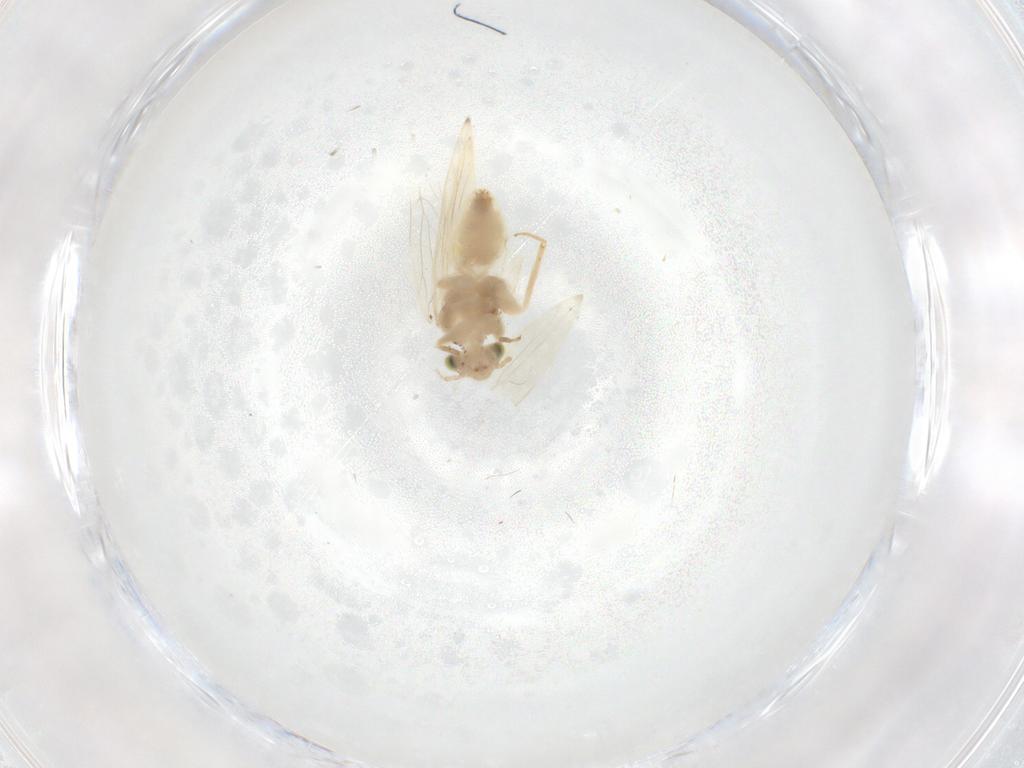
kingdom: Animalia
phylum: Arthropoda
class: Insecta
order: Psocodea
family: Lepidopsocidae
